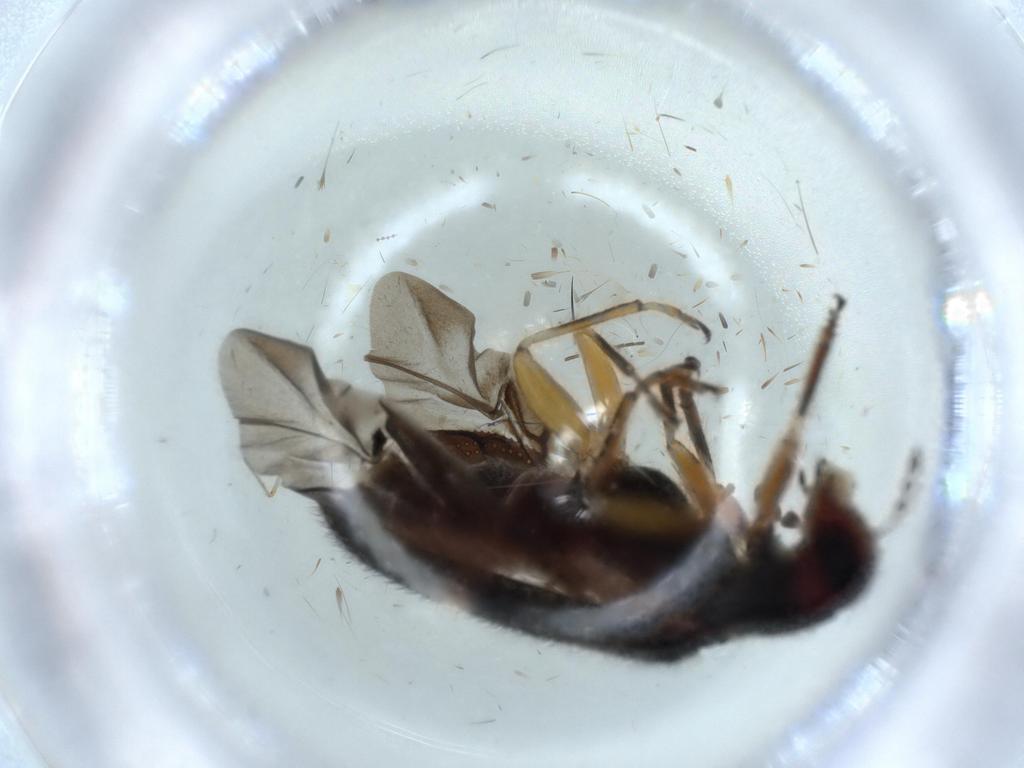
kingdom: Animalia
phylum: Arthropoda
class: Insecta
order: Coleoptera
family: Cleridae
